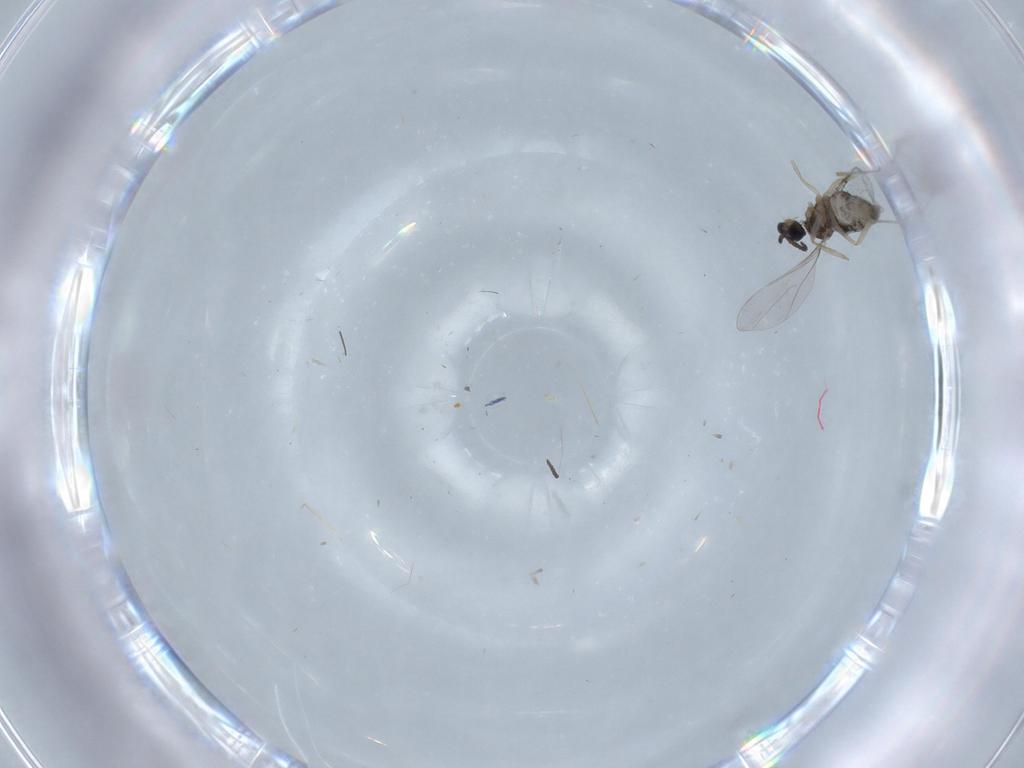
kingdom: Animalia
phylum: Arthropoda
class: Insecta
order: Diptera
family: Cecidomyiidae
